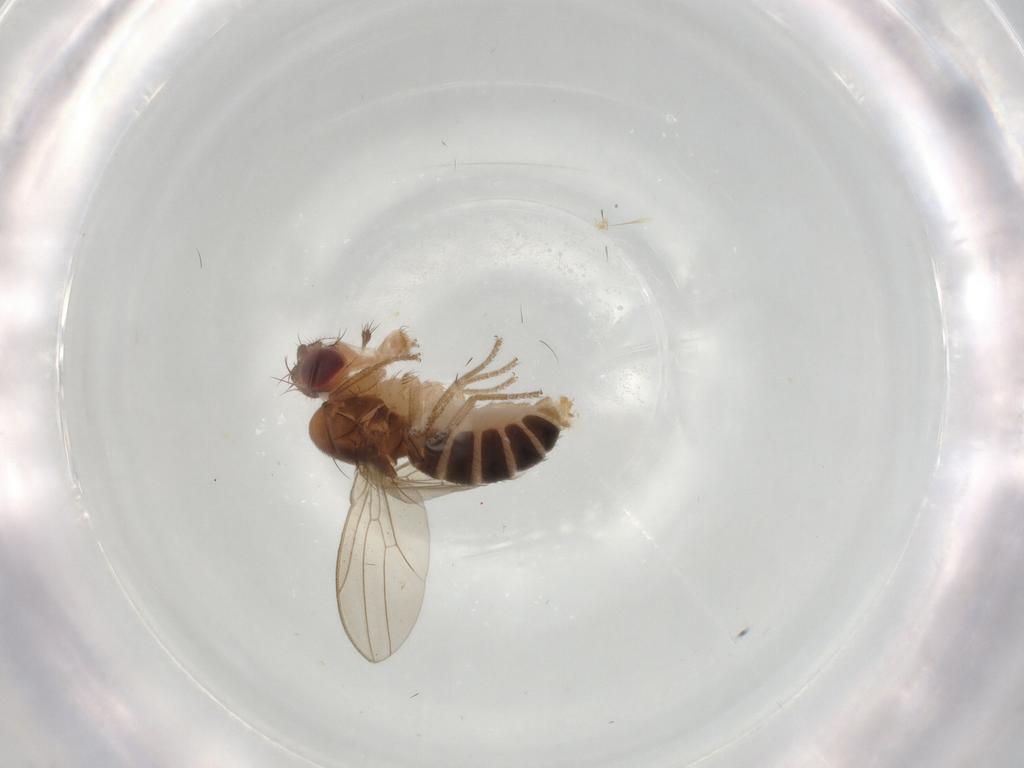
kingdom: Animalia
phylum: Arthropoda
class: Insecta
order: Diptera
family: Drosophilidae
